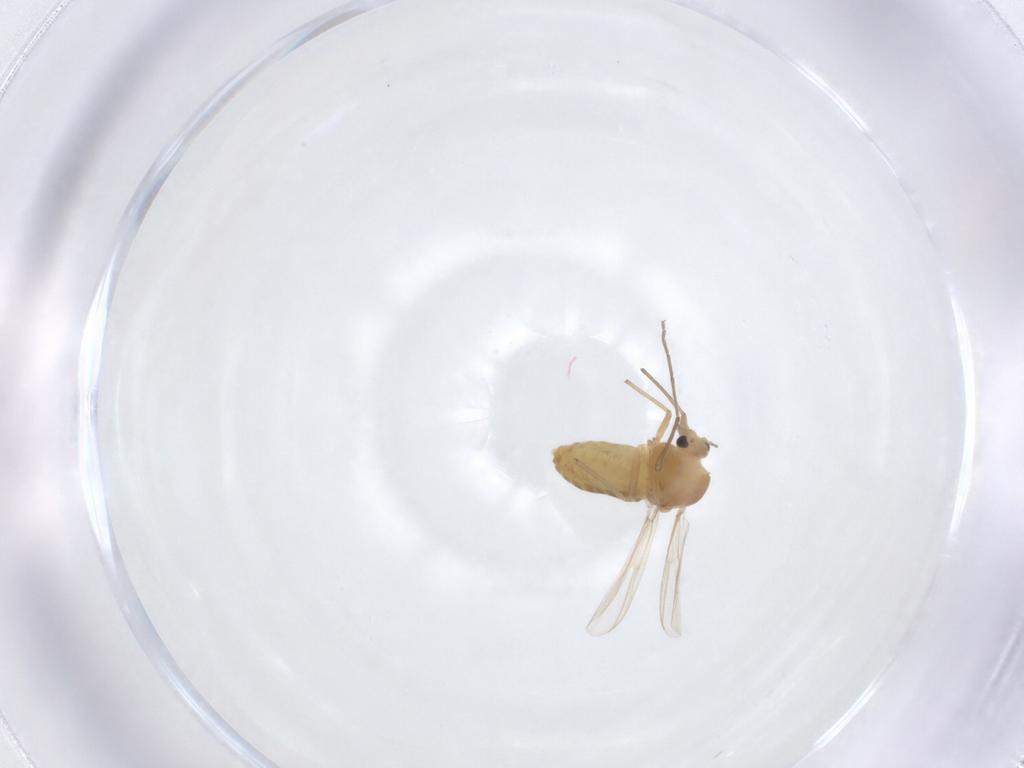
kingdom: Animalia
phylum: Arthropoda
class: Insecta
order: Diptera
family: Chironomidae
